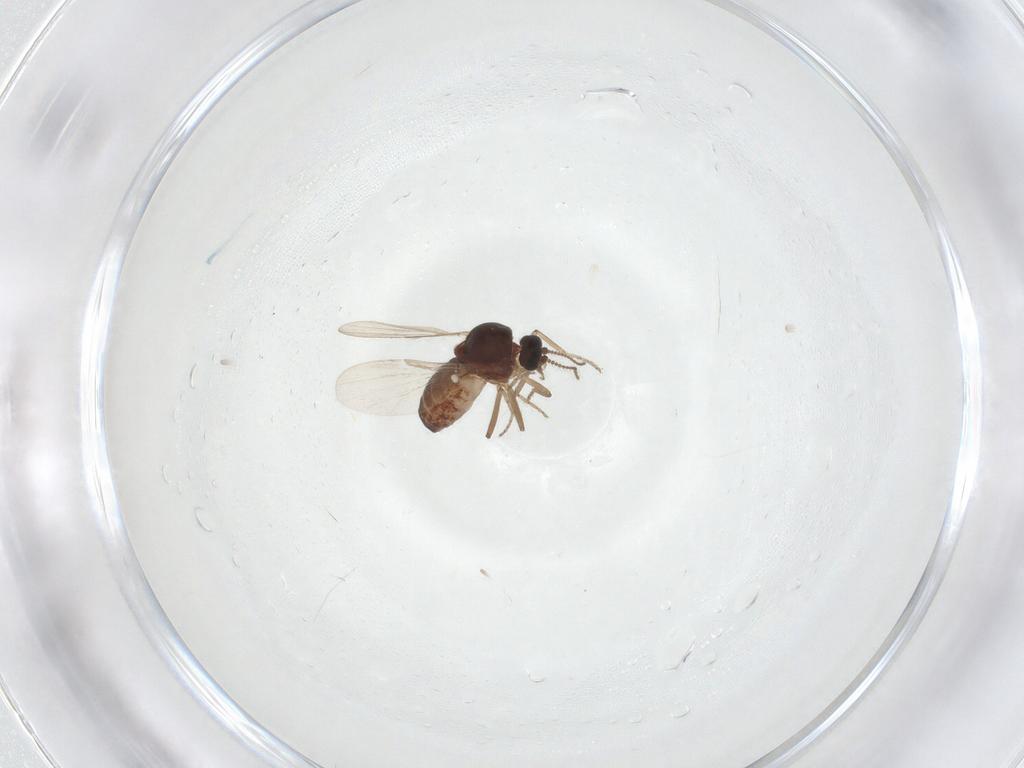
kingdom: Animalia
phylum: Arthropoda
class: Insecta
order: Diptera
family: Ceratopogonidae
